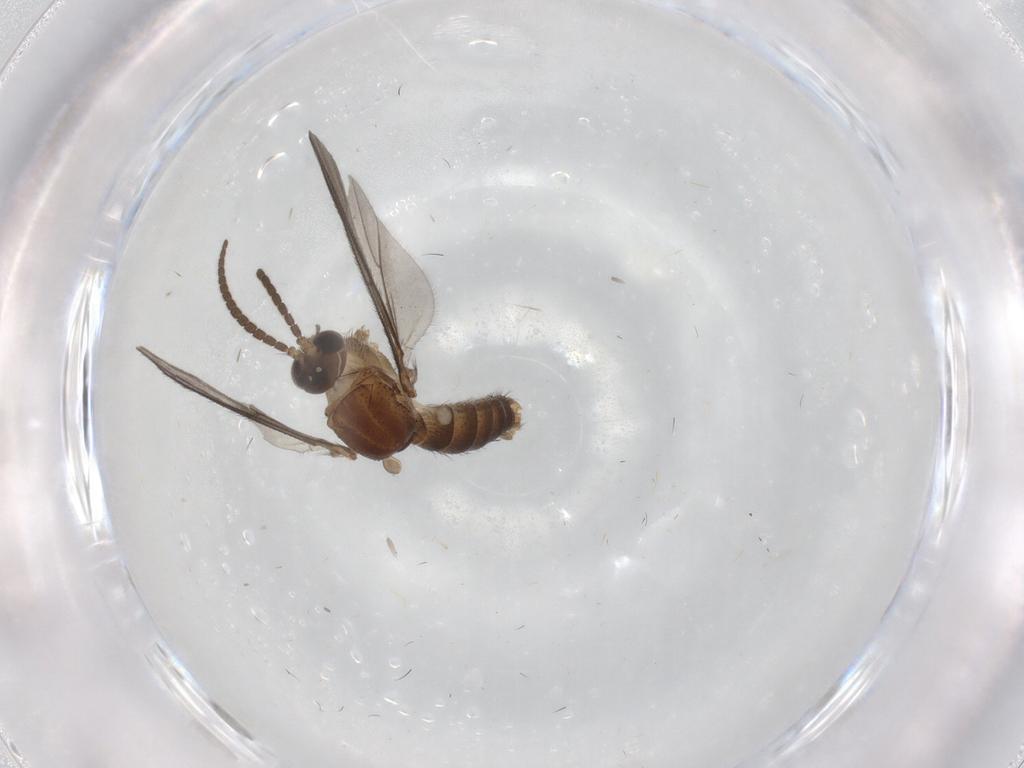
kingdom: Animalia
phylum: Arthropoda
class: Insecta
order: Diptera
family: Mycetophilidae
